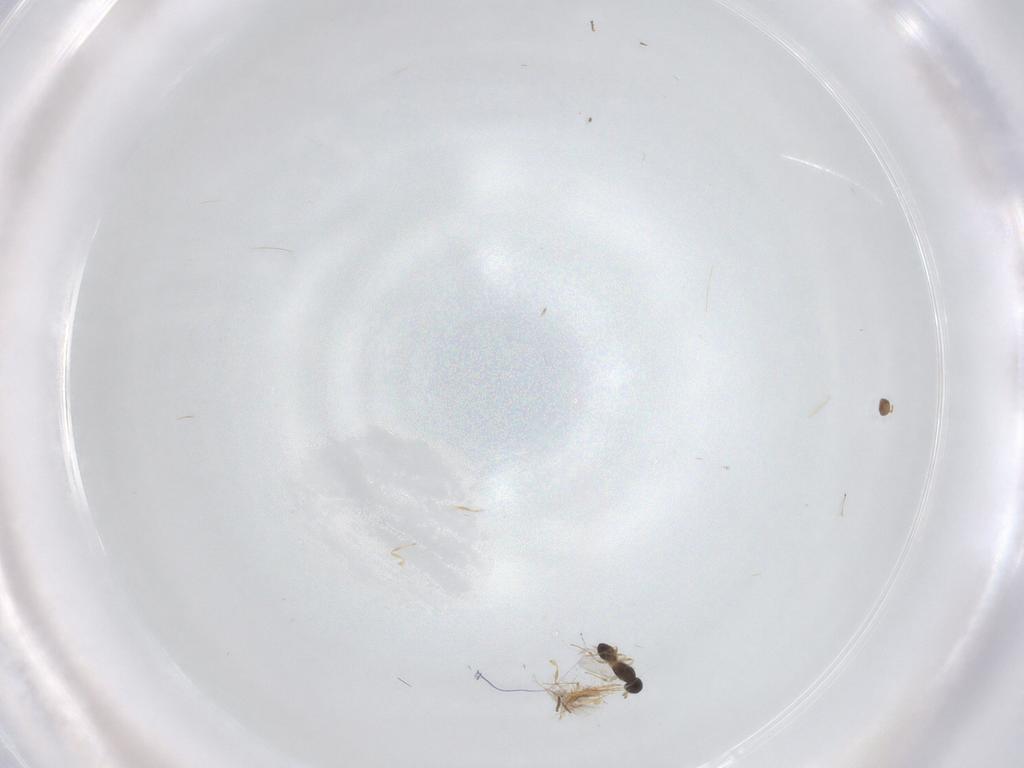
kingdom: Animalia
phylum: Arthropoda
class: Insecta
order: Hymenoptera
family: Scelionidae
